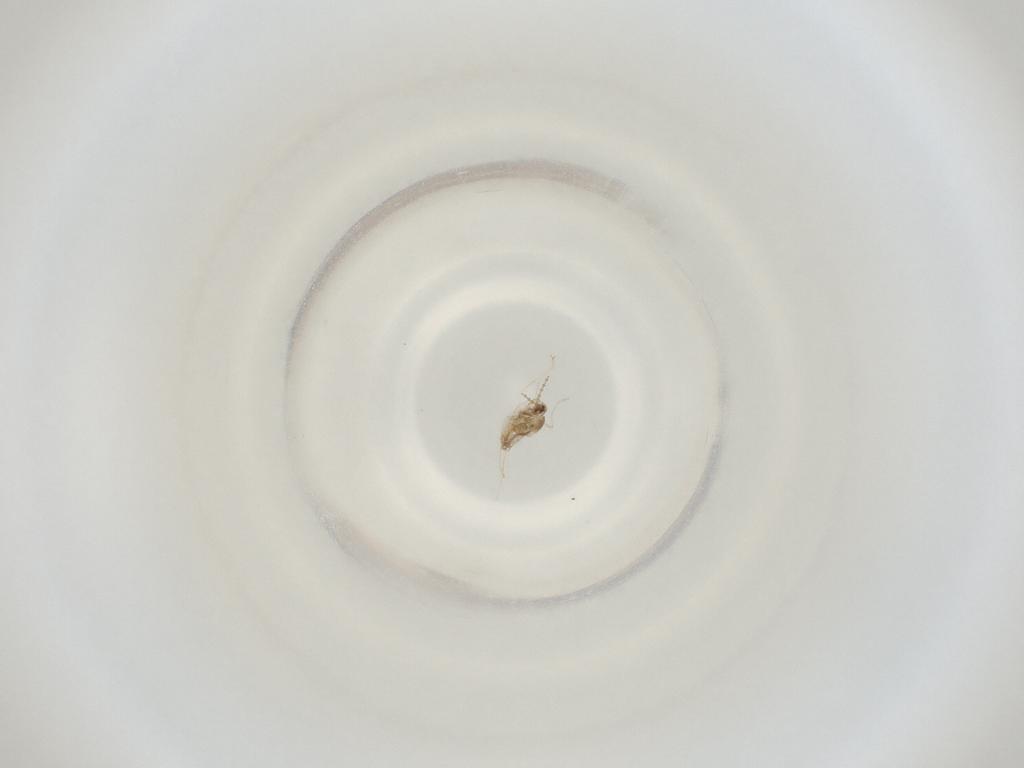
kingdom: Animalia
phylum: Arthropoda
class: Insecta
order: Diptera
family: Cecidomyiidae
